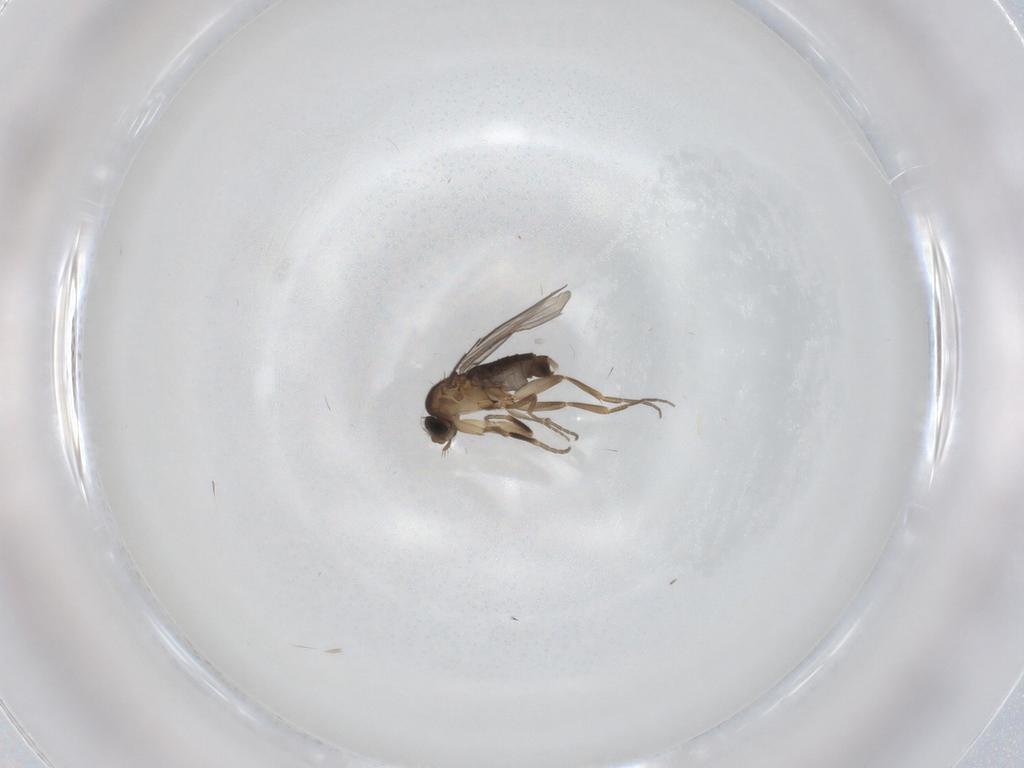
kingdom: Animalia
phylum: Arthropoda
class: Insecta
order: Diptera
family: Phoridae
